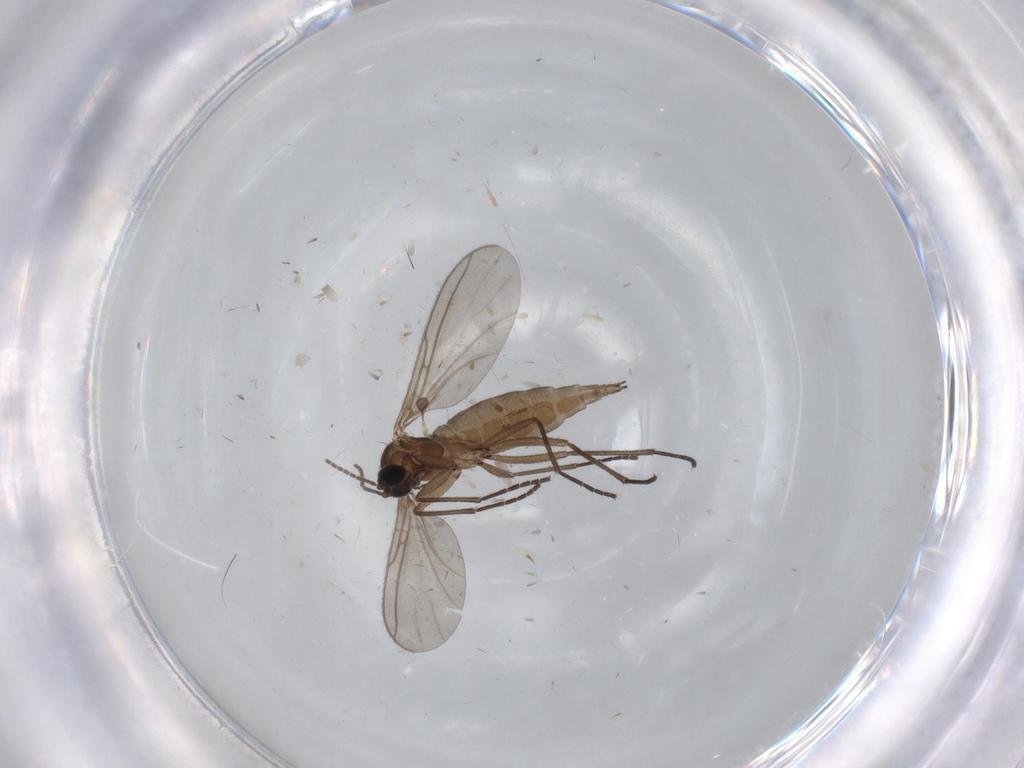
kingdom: Animalia
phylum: Arthropoda
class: Insecta
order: Diptera
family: Sciaridae
